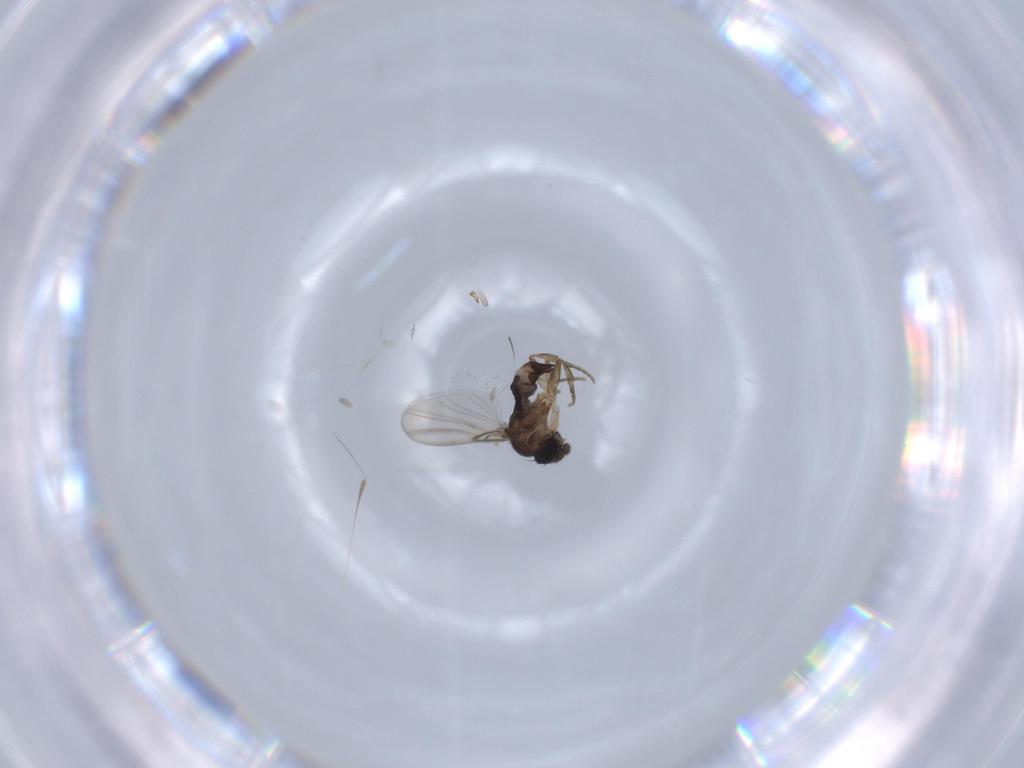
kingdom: Animalia
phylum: Arthropoda
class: Insecta
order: Diptera
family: Phoridae
